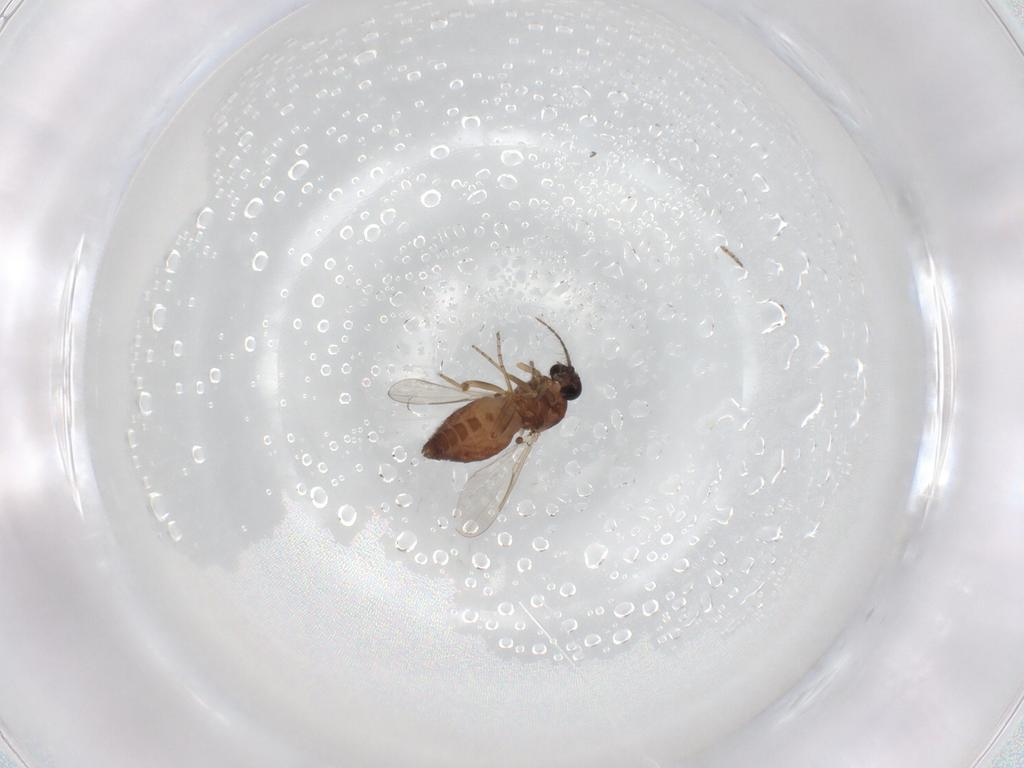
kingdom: Animalia
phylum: Arthropoda
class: Insecta
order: Diptera
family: Ceratopogonidae
